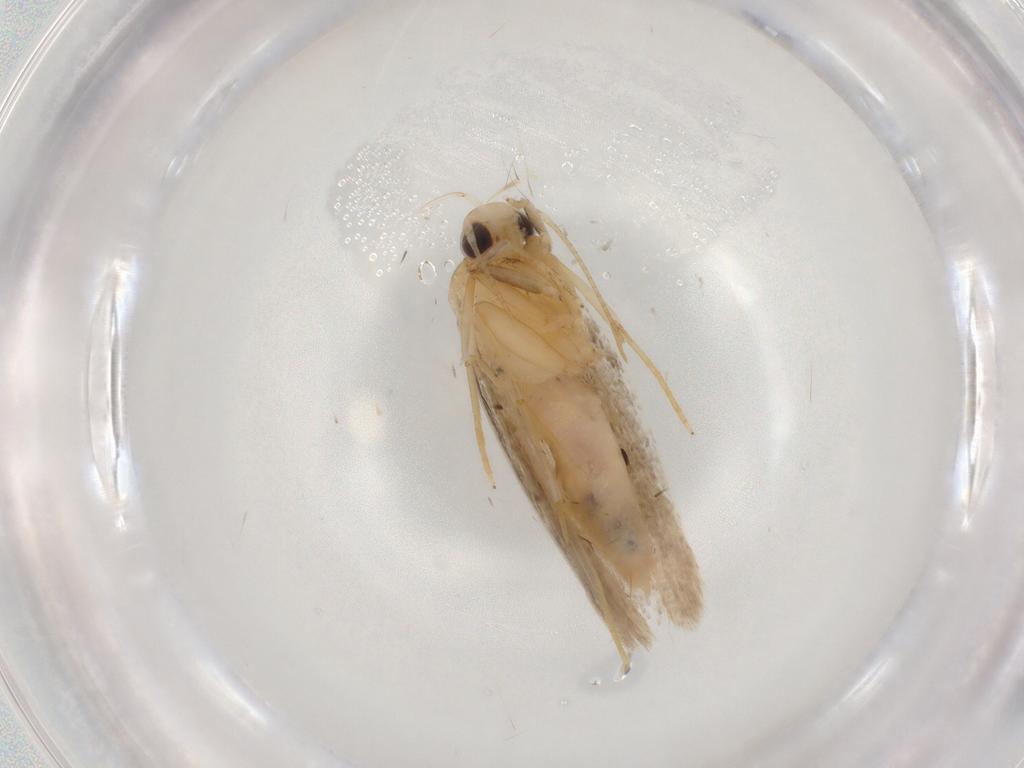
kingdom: Animalia
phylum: Arthropoda
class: Insecta
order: Lepidoptera
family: Autostichidae
